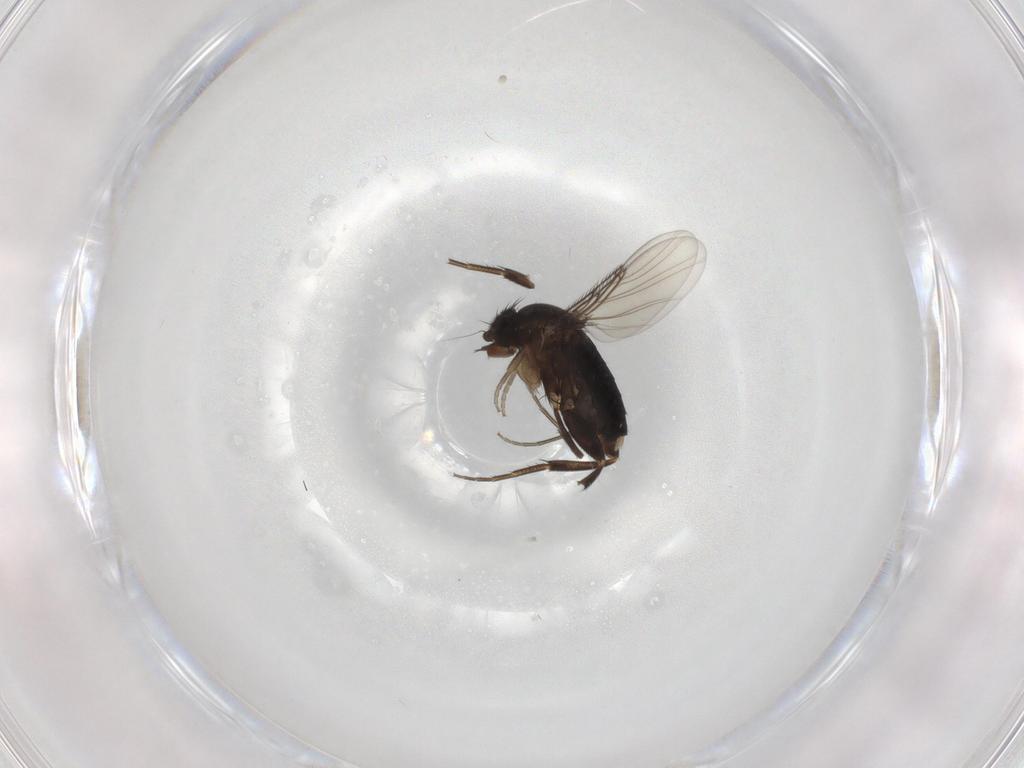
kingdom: Animalia
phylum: Arthropoda
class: Insecta
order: Diptera
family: Phoridae
